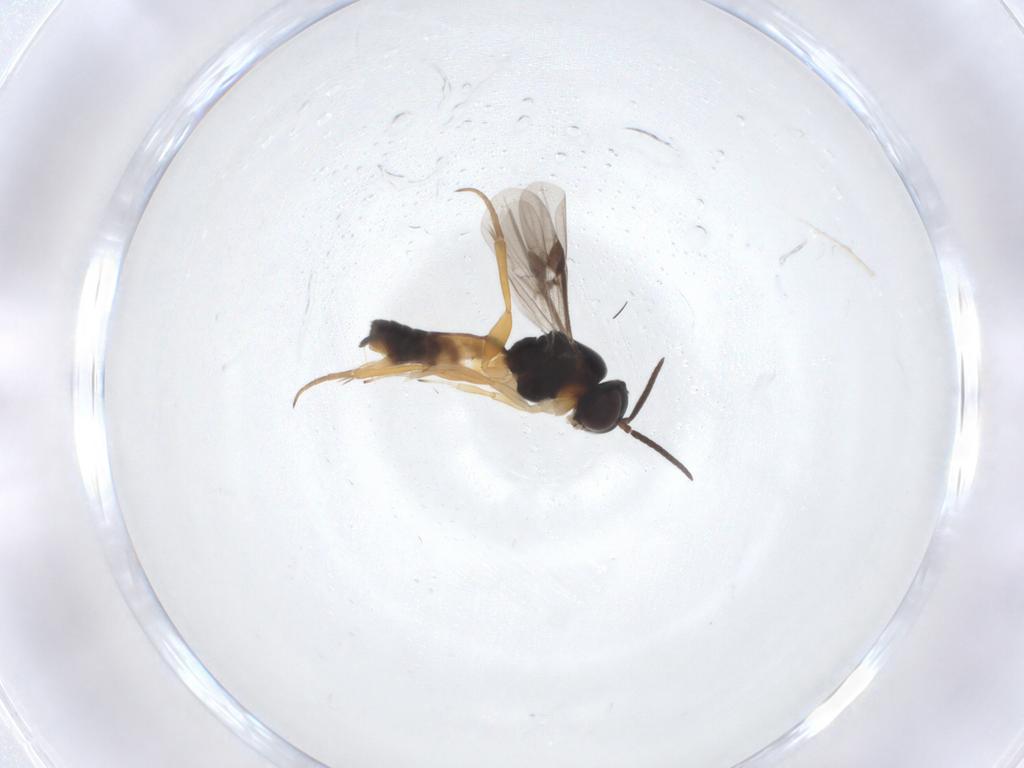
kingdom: Animalia
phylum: Arthropoda
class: Insecta
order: Hymenoptera
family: Braconidae
